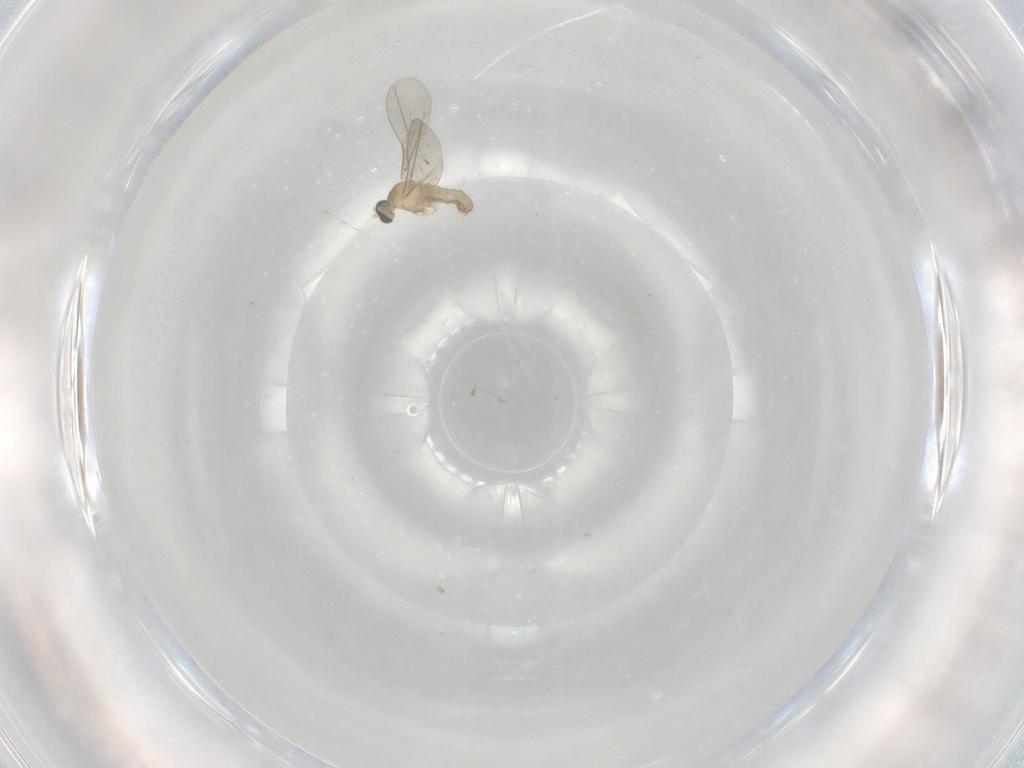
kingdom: Animalia
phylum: Arthropoda
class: Insecta
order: Diptera
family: Cecidomyiidae
